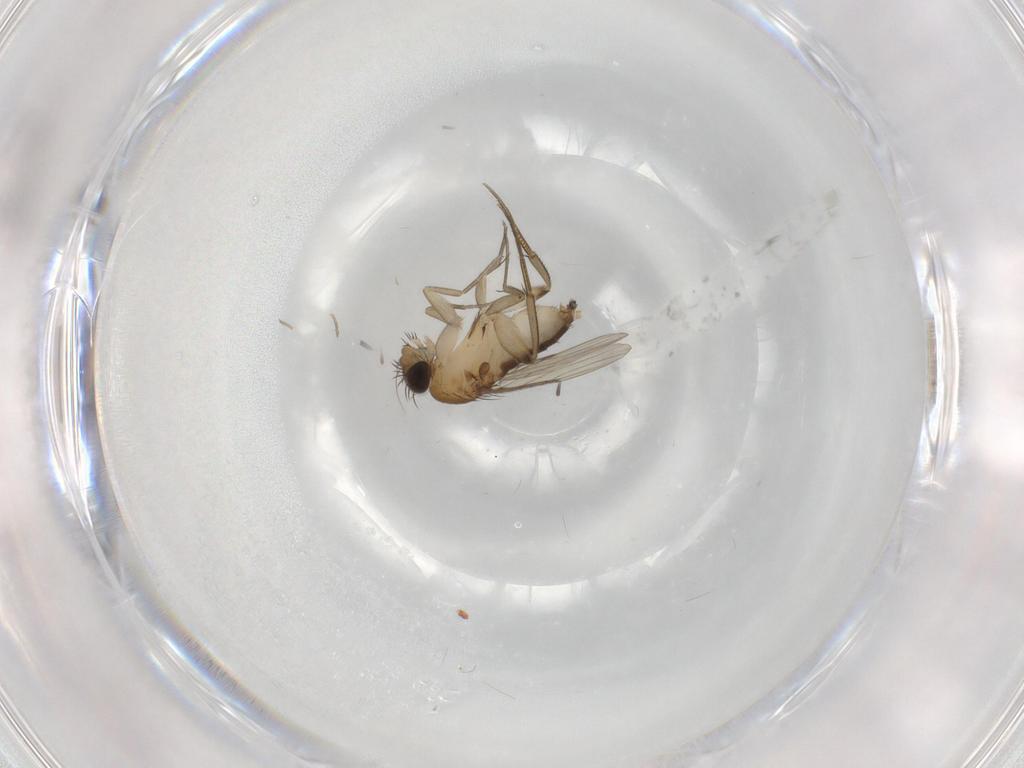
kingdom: Animalia
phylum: Arthropoda
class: Insecta
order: Diptera
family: Phoridae
